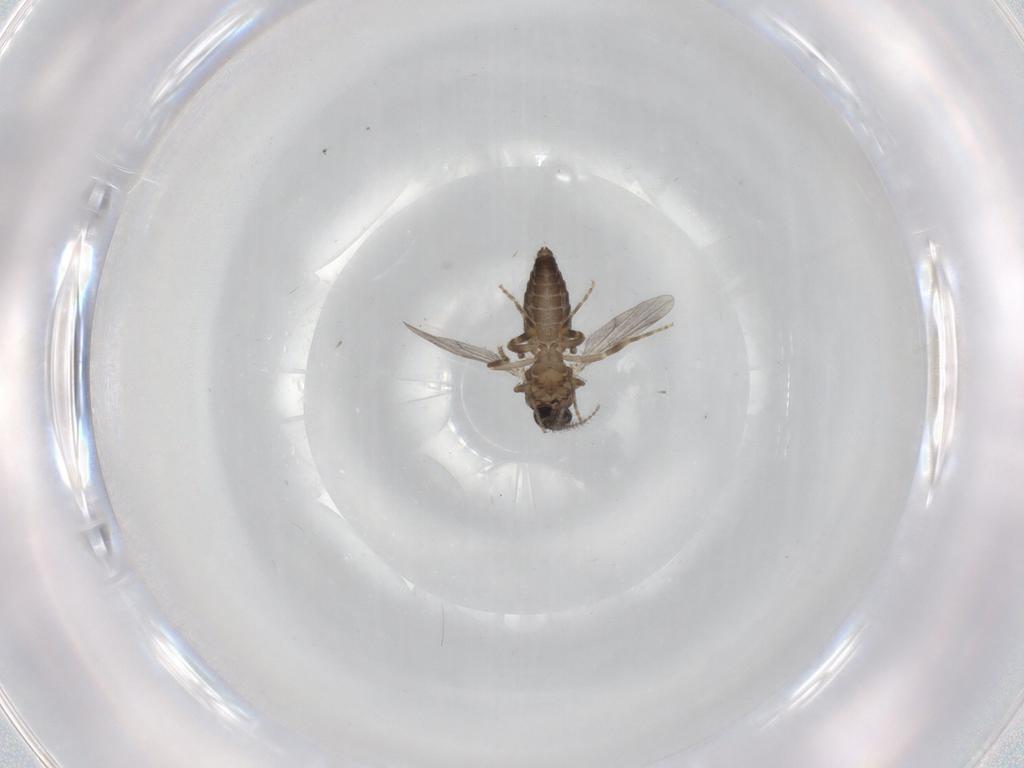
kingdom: Animalia
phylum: Arthropoda
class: Insecta
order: Diptera
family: Ceratopogonidae
